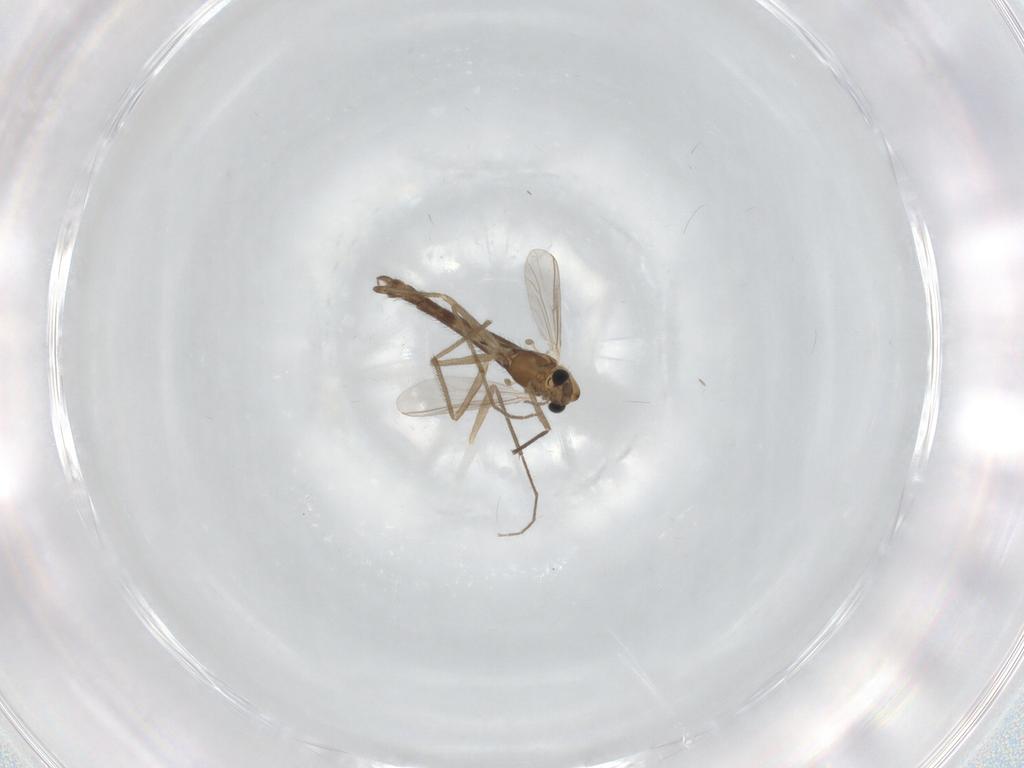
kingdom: Animalia
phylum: Arthropoda
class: Insecta
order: Diptera
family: Chironomidae
